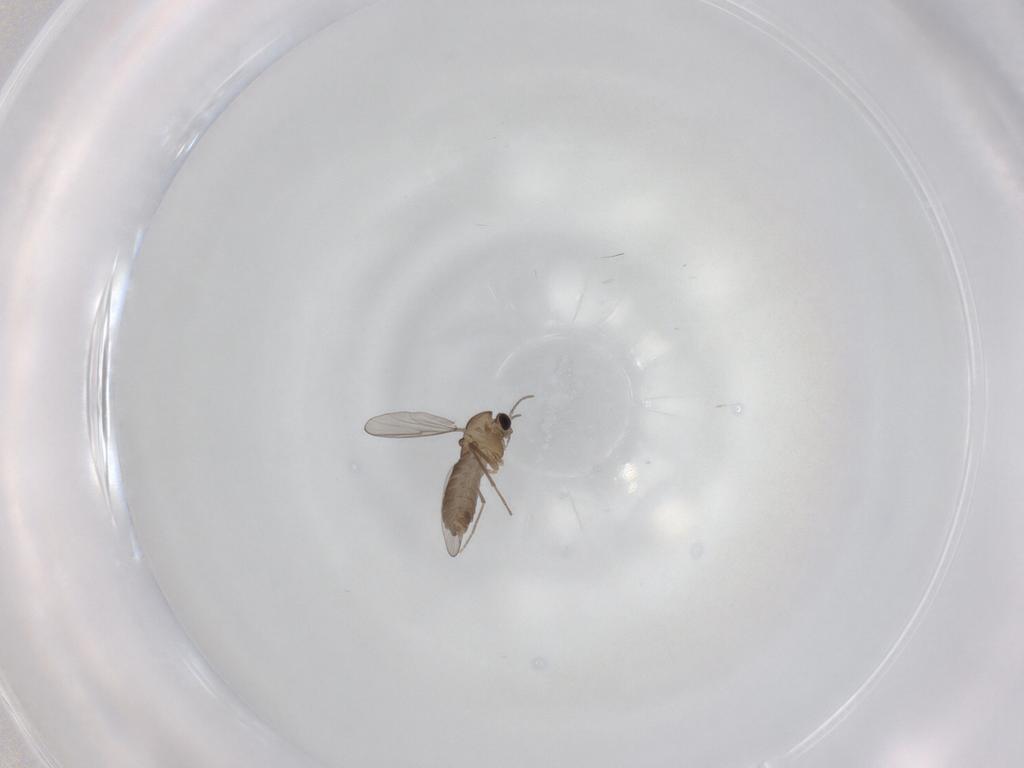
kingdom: Animalia
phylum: Arthropoda
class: Insecta
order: Diptera
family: Chironomidae
